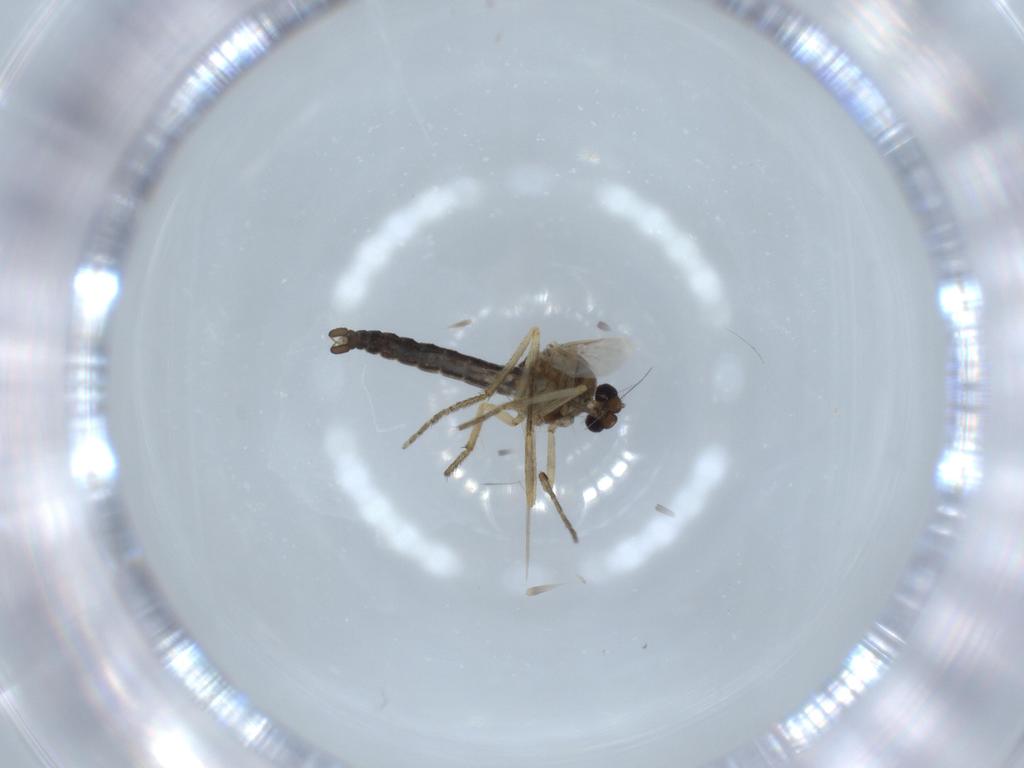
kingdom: Animalia
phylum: Arthropoda
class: Insecta
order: Diptera
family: Ceratopogonidae
